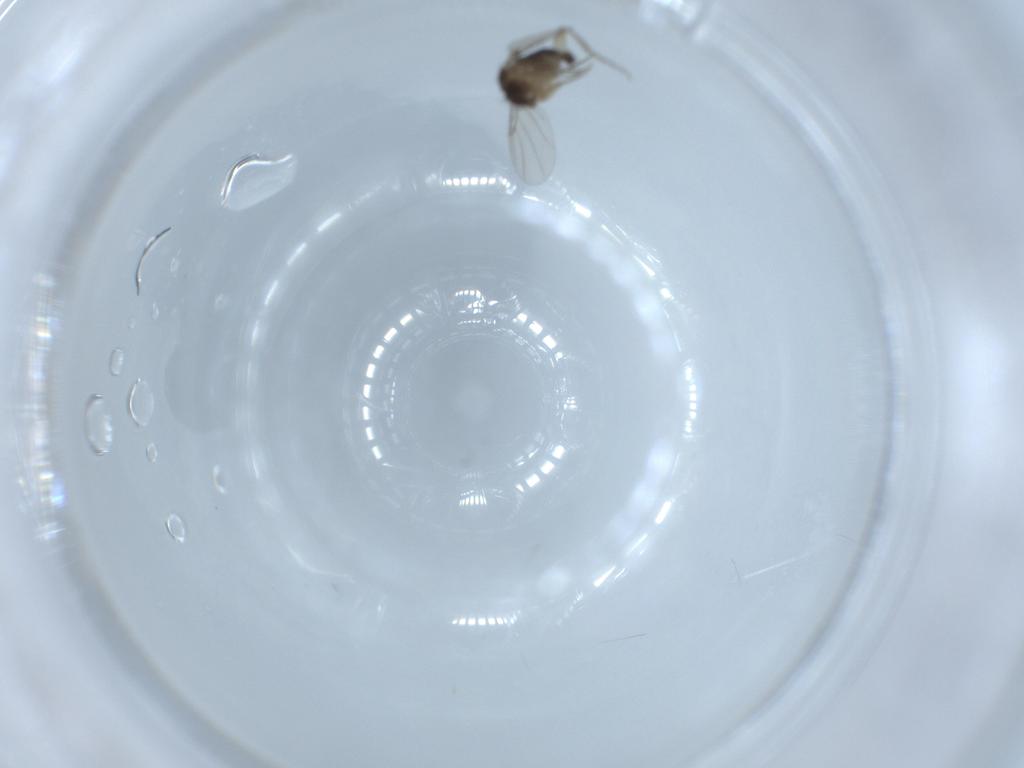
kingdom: Animalia
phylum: Arthropoda
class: Insecta
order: Diptera
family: Phoridae
